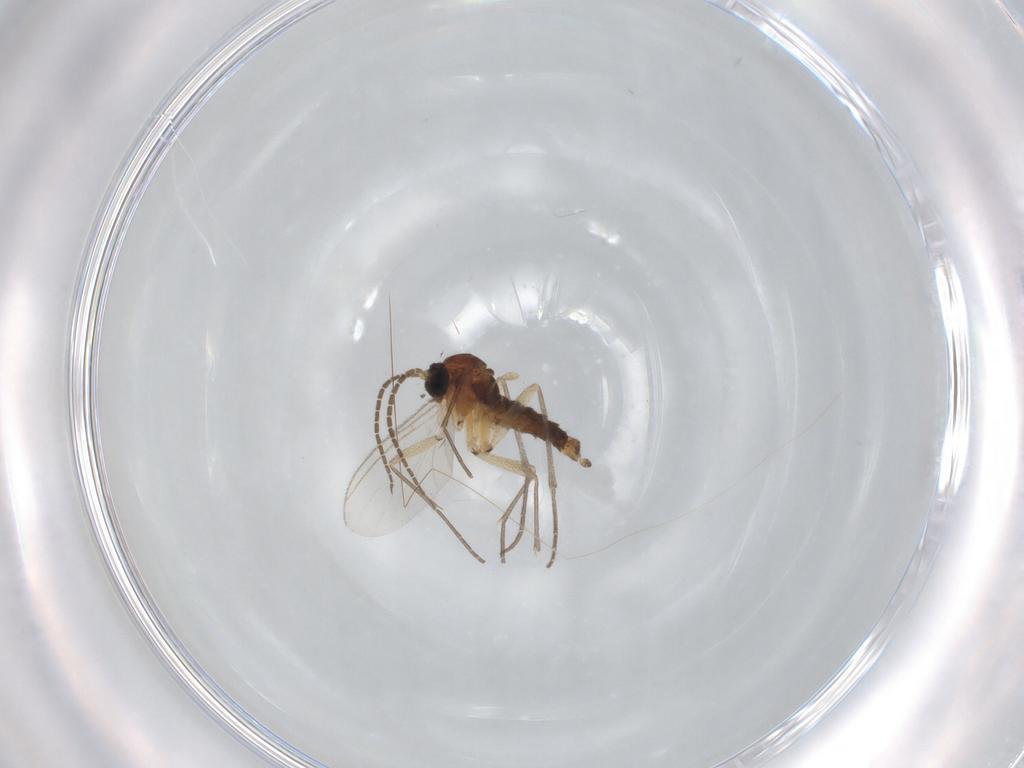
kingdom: Animalia
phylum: Arthropoda
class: Insecta
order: Diptera
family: Sciaridae
